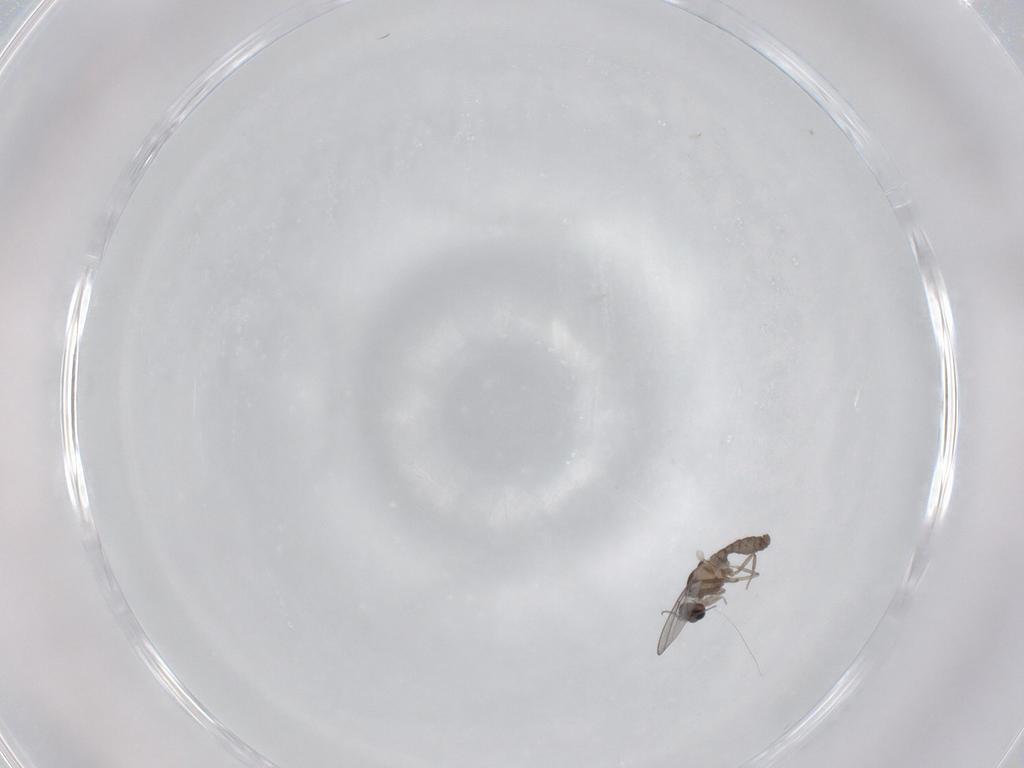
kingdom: Animalia
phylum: Arthropoda
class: Insecta
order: Diptera
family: Cecidomyiidae
